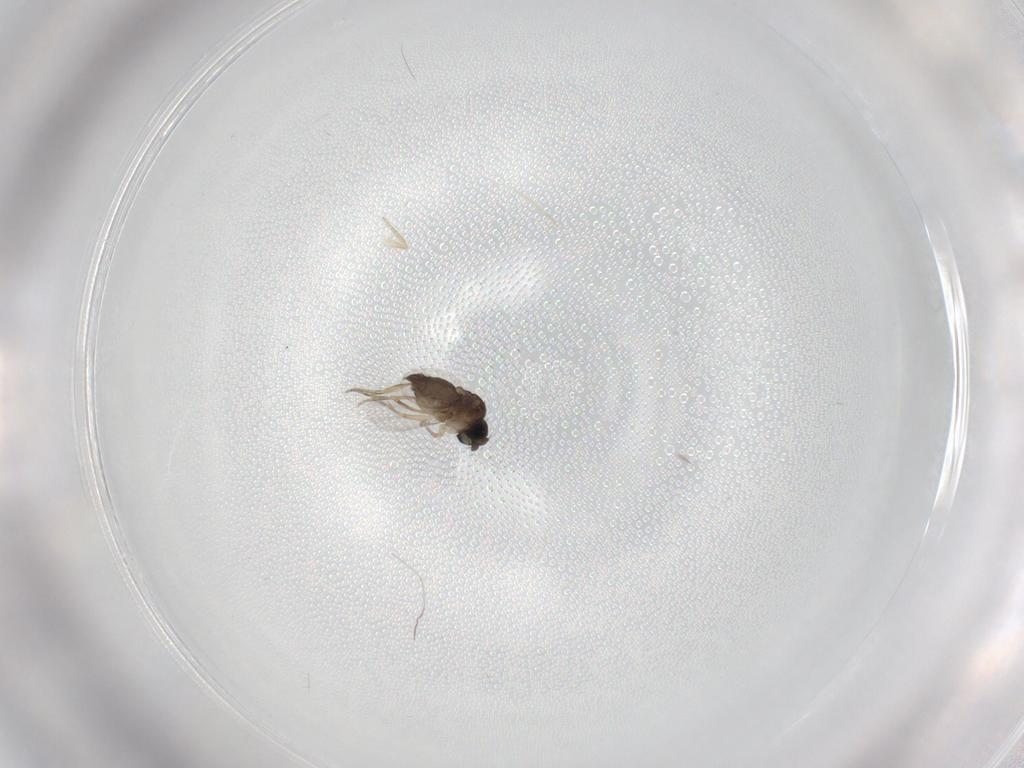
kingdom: Animalia
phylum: Arthropoda
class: Insecta
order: Diptera
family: Phoridae
